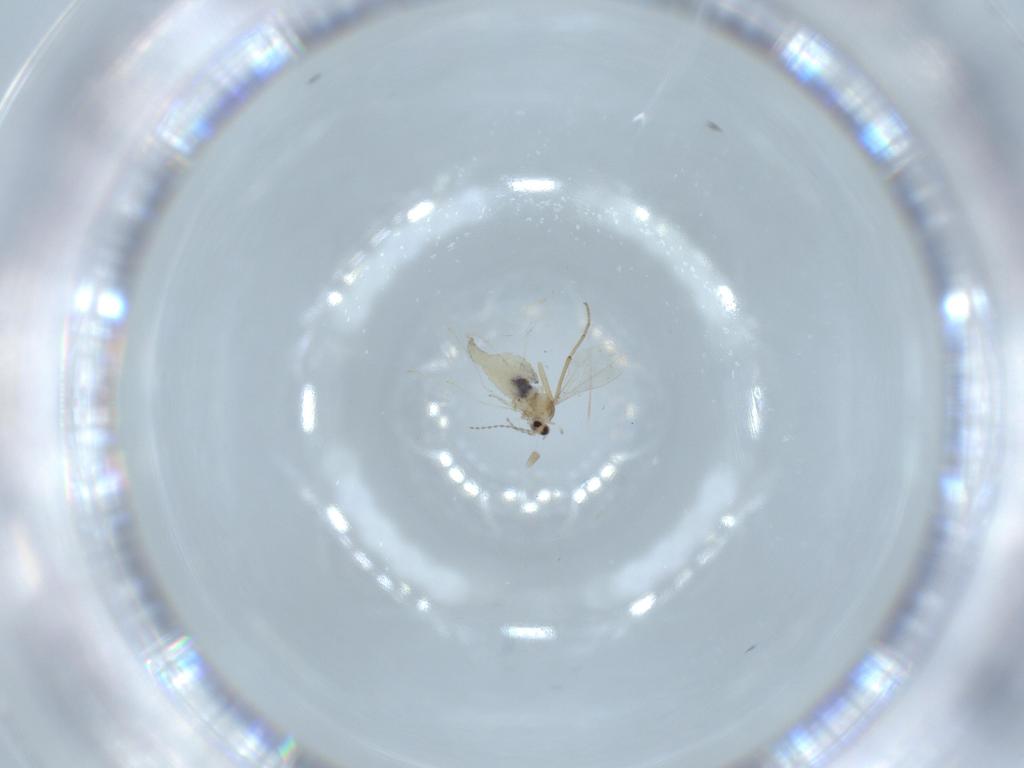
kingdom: Animalia
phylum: Arthropoda
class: Insecta
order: Diptera
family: Cecidomyiidae
